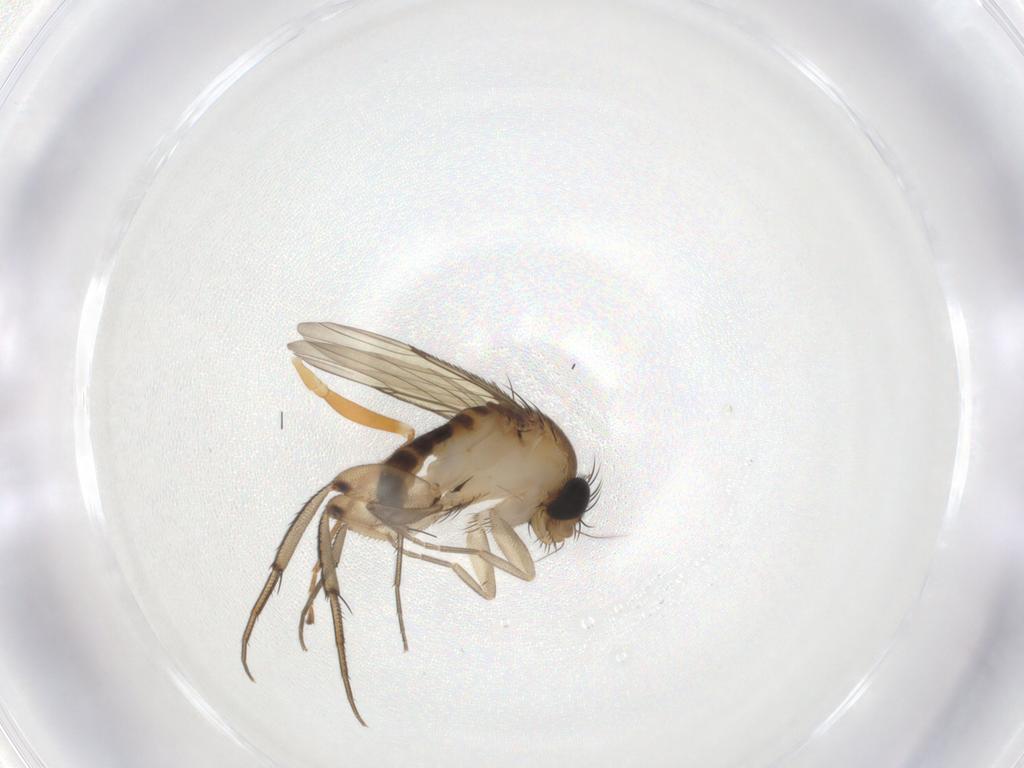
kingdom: Animalia
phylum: Arthropoda
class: Insecta
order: Diptera
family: Phoridae
